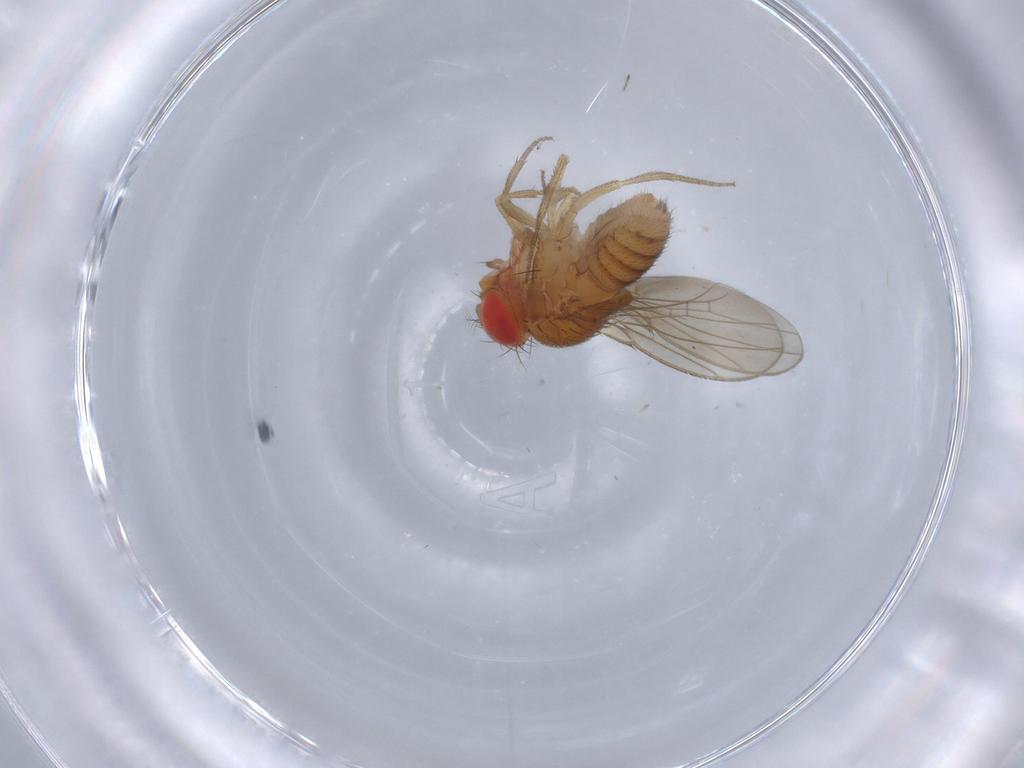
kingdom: Animalia
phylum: Arthropoda
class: Insecta
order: Diptera
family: Drosophilidae
